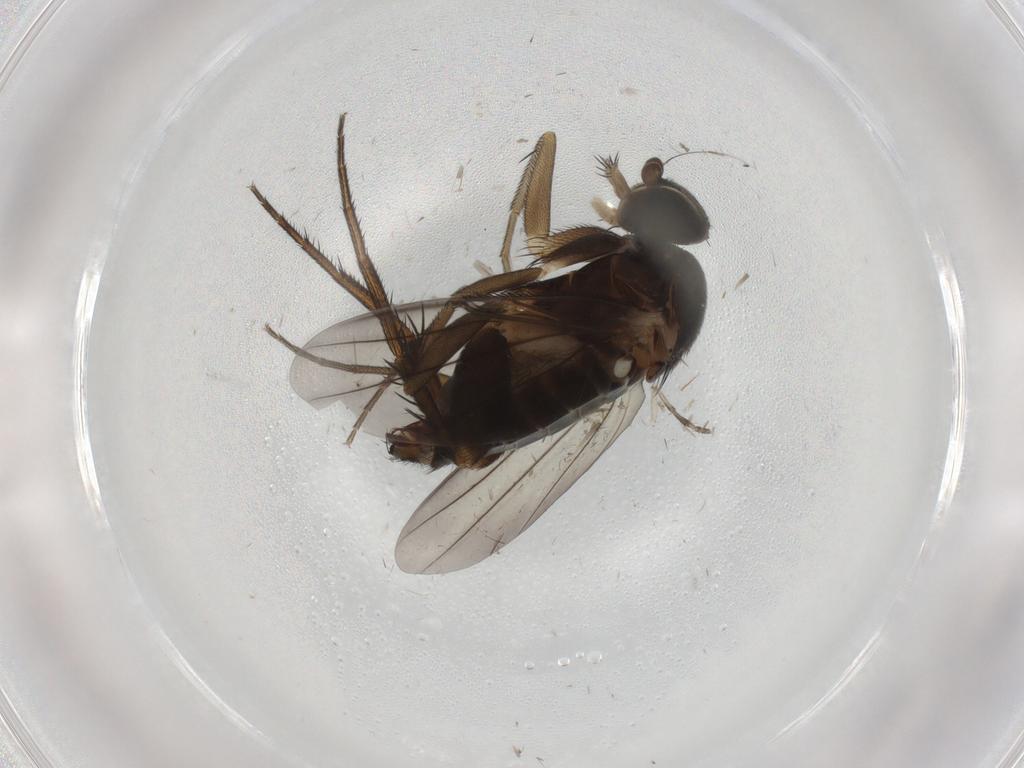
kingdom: Animalia
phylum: Arthropoda
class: Insecta
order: Diptera
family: Phoridae
